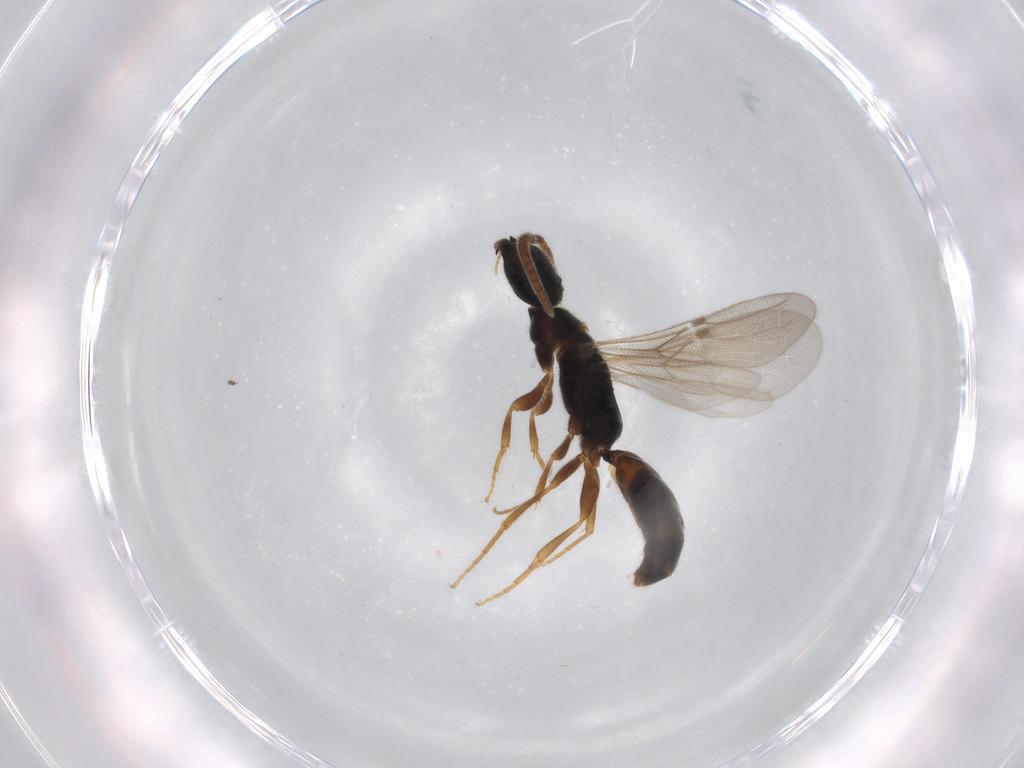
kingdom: Animalia
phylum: Arthropoda
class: Insecta
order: Hymenoptera
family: Bethylidae
